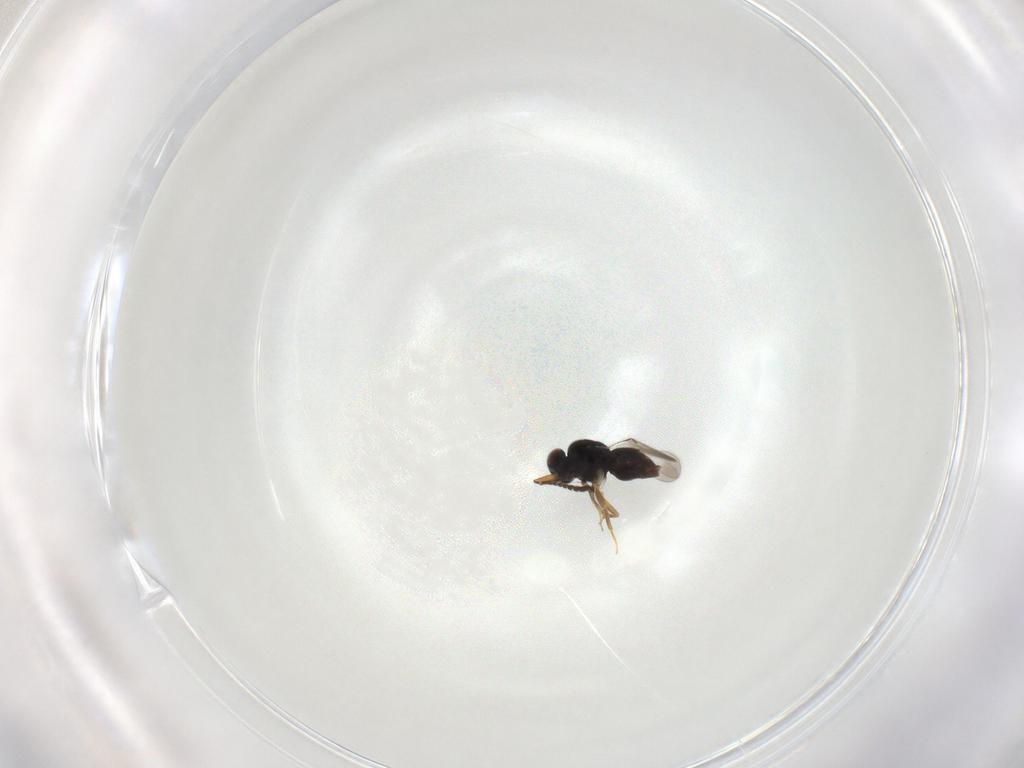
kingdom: Animalia
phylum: Arthropoda
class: Insecta
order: Hymenoptera
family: Ceraphronidae
